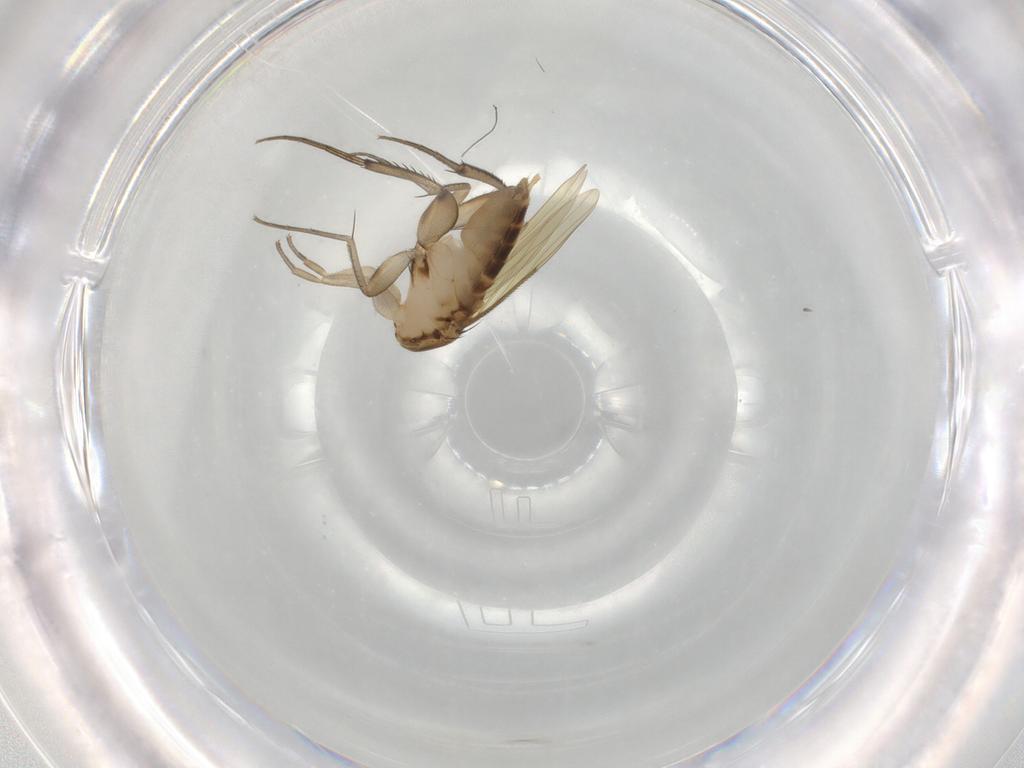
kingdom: Animalia
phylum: Arthropoda
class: Insecta
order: Diptera
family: Phoridae
